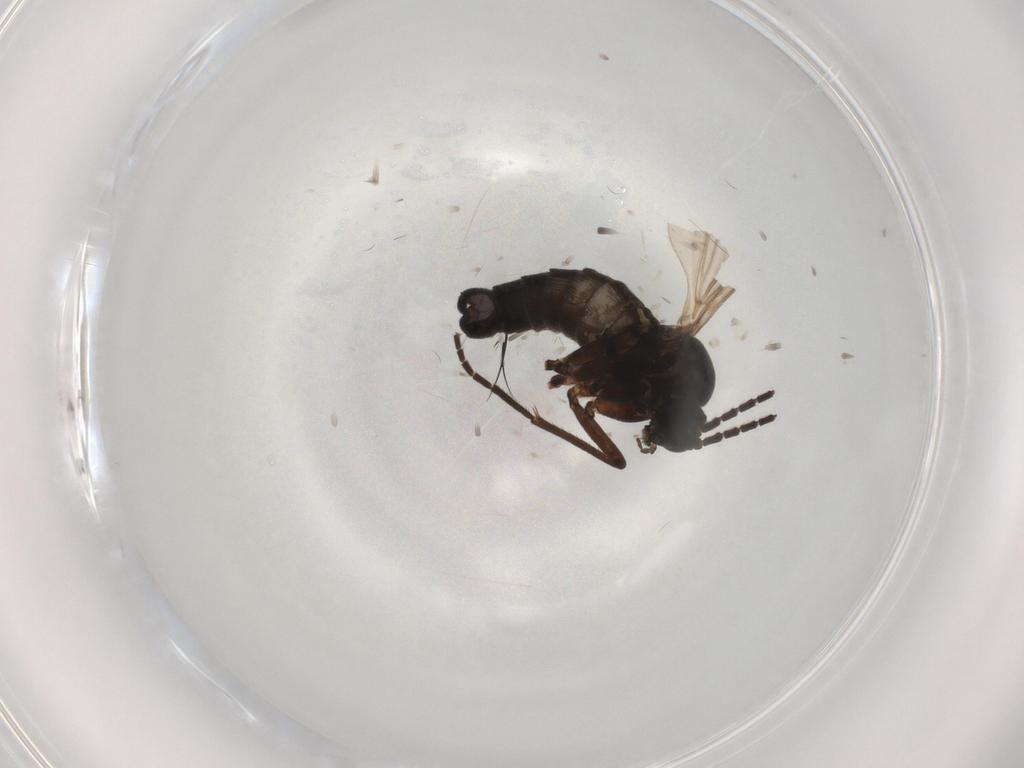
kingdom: Animalia
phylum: Arthropoda
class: Insecta
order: Diptera
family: Sciaridae
